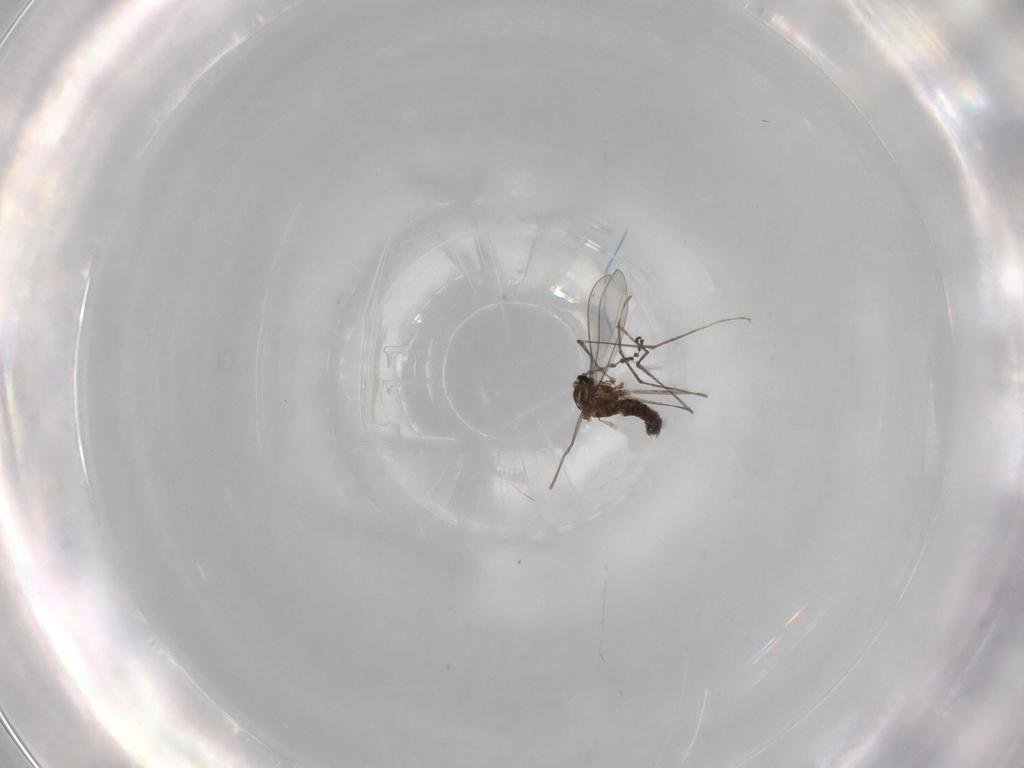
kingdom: Animalia
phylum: Arthropoda
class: Insecta
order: Diptera
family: Cecidomyiidae
